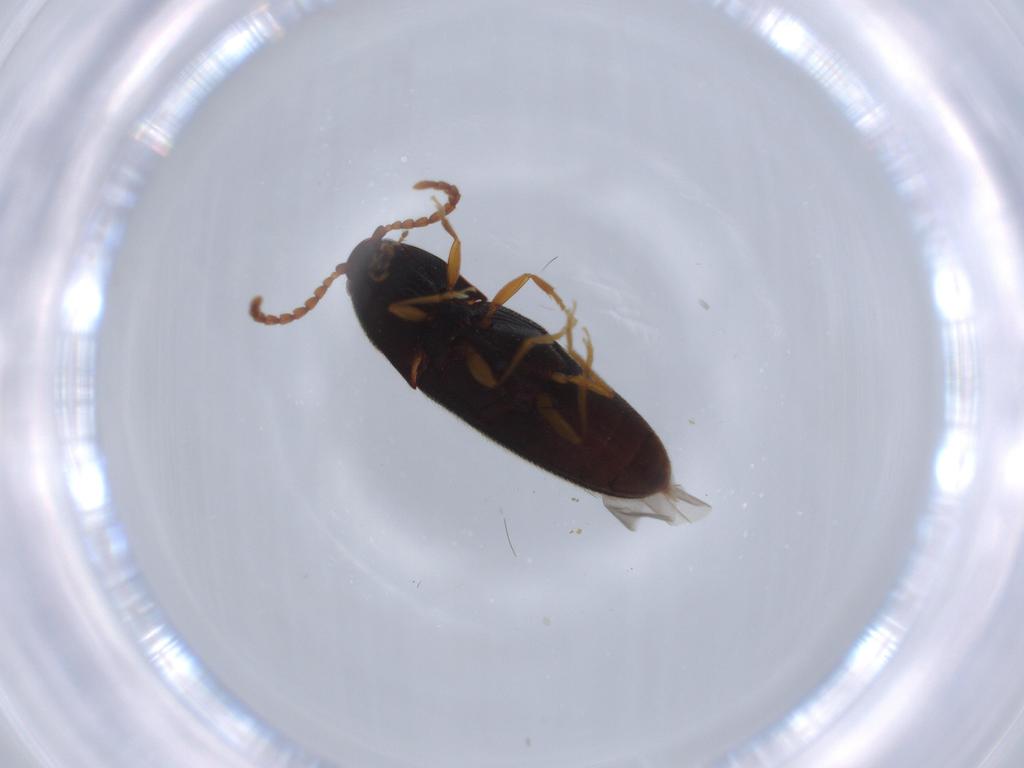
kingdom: Animalia
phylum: Arthropoda
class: Insecta
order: Coleoptera
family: Elateridae
